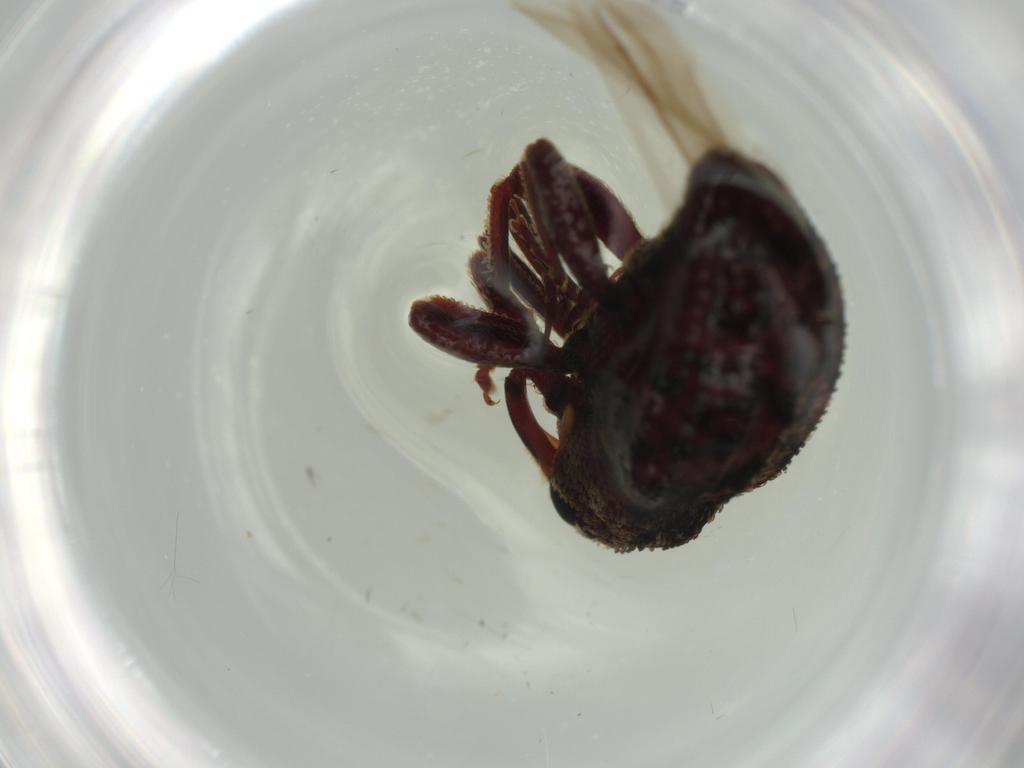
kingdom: Animalia
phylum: Arthropoda
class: Insecta
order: Coleoptera
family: Curculionidae
